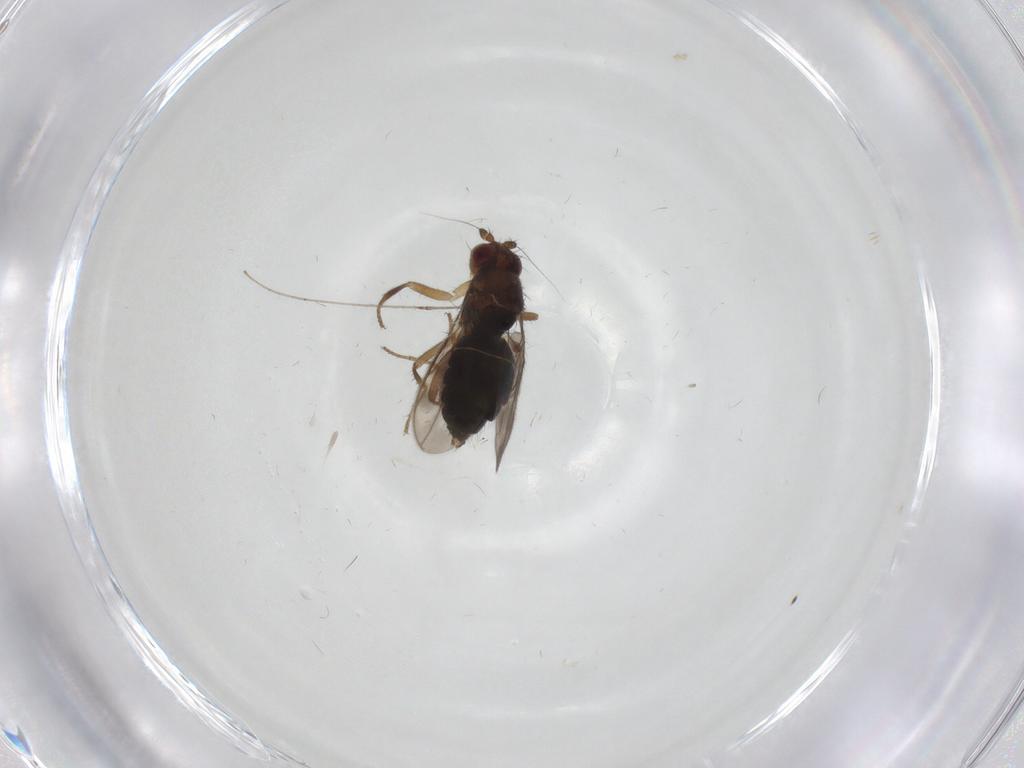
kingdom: Animalia
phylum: Arthropoda
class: Insecta
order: Diptera
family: Sphaeroceridae
